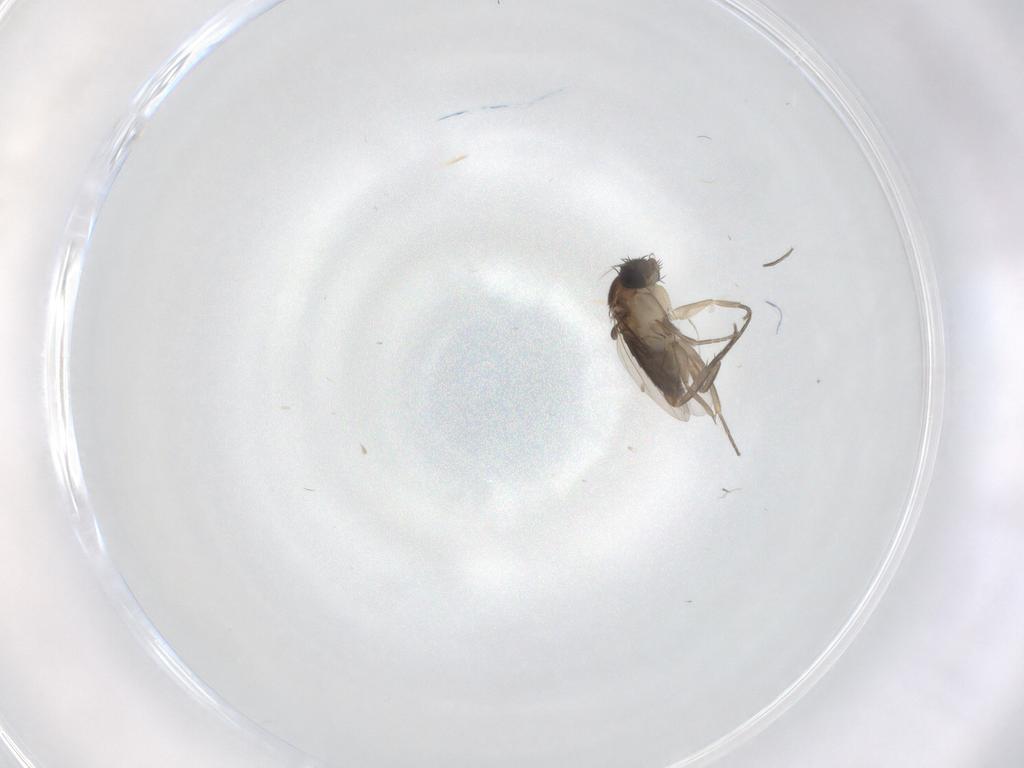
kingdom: Animalia
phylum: Arthropoda
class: Insecta
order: Diptera
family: Phoridae
